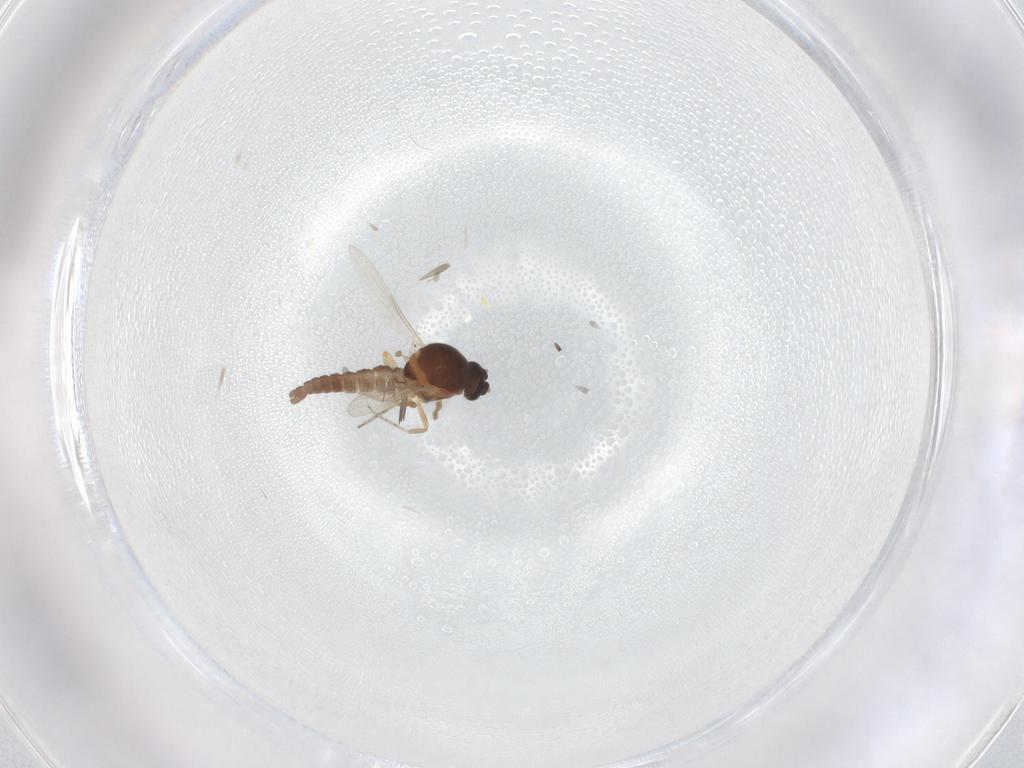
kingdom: Animalia
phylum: Arthropoda
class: Insecta
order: Diptera
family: Ceratopogonidae
